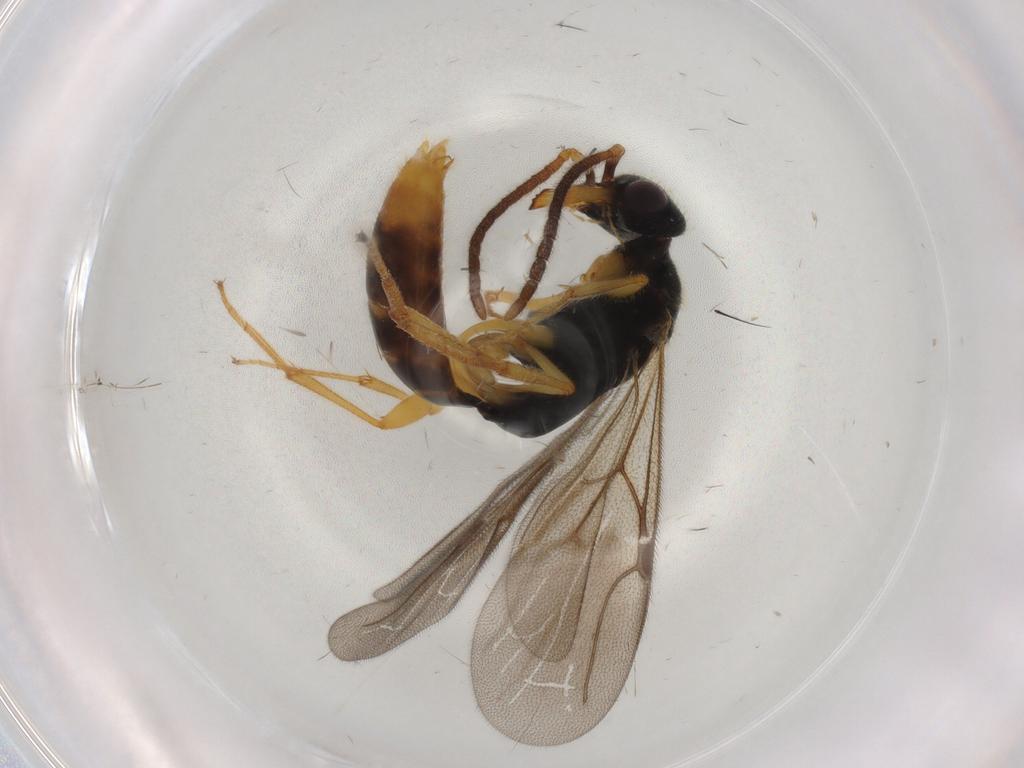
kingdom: Animalia
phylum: Arthropoda
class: Insecta
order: Hymenoptera
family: Bethylidae
